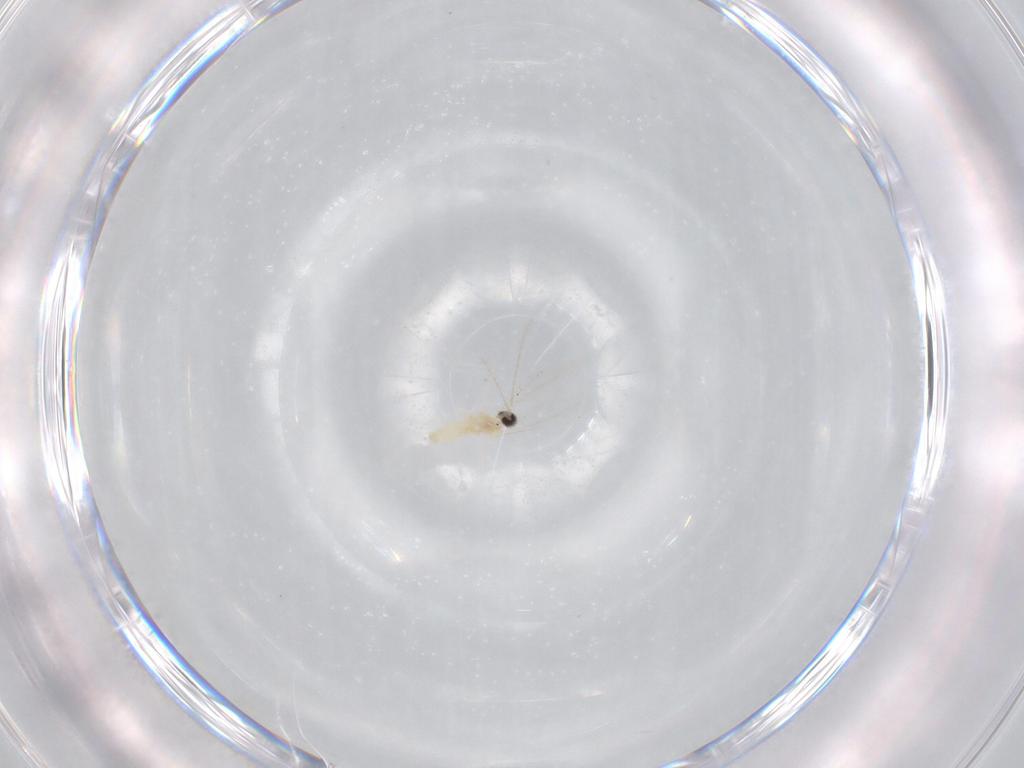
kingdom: Animalia
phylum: Arthropoda
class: Insecta
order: Diptera
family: Cecidomyiidae
